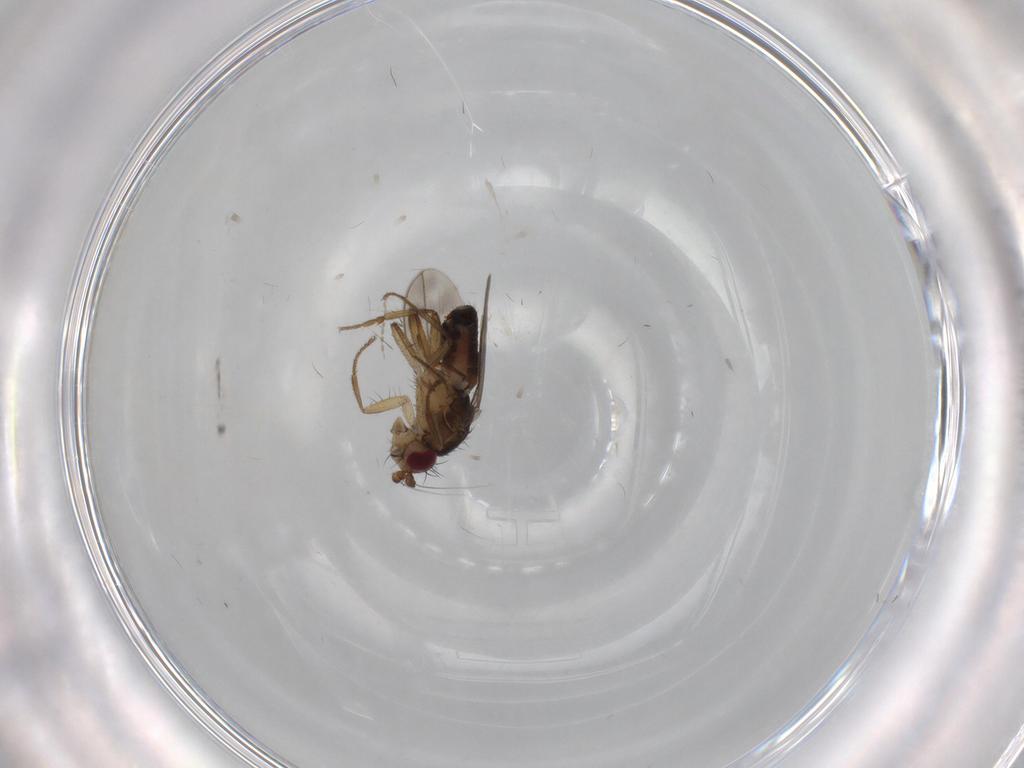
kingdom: Animalia
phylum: Arthropoda
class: Insecta
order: Diptera
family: Sphaeroceridae
